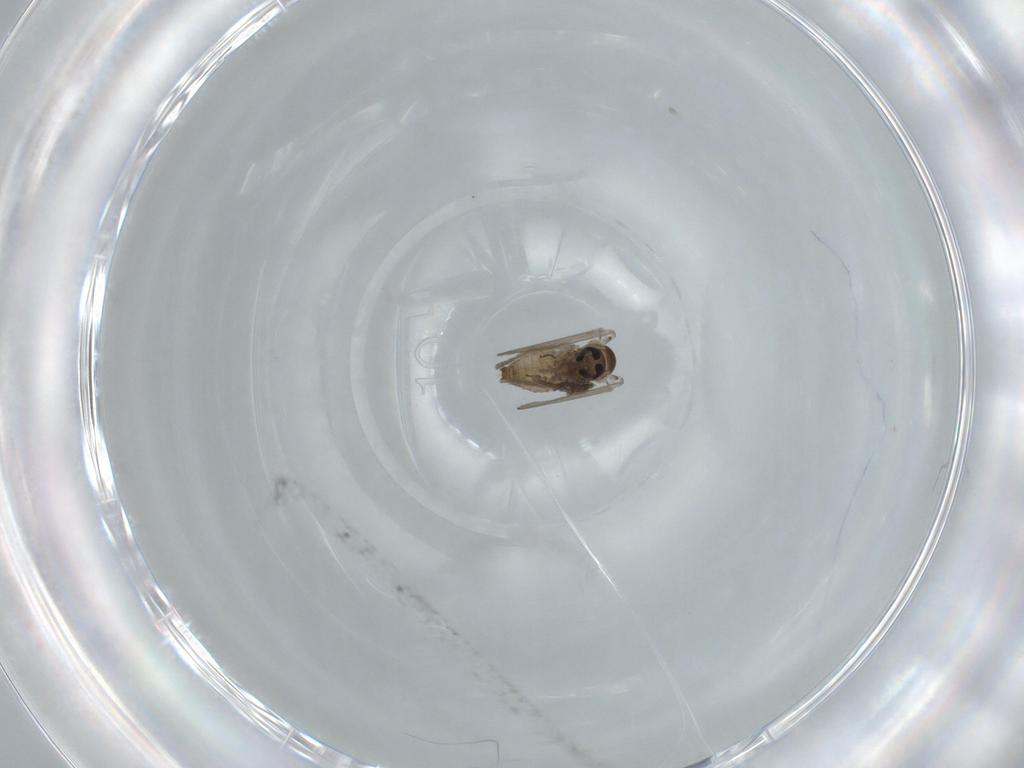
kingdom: Animalia
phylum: Arthropoda
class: Insecta
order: Diptera
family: Psychodidae
